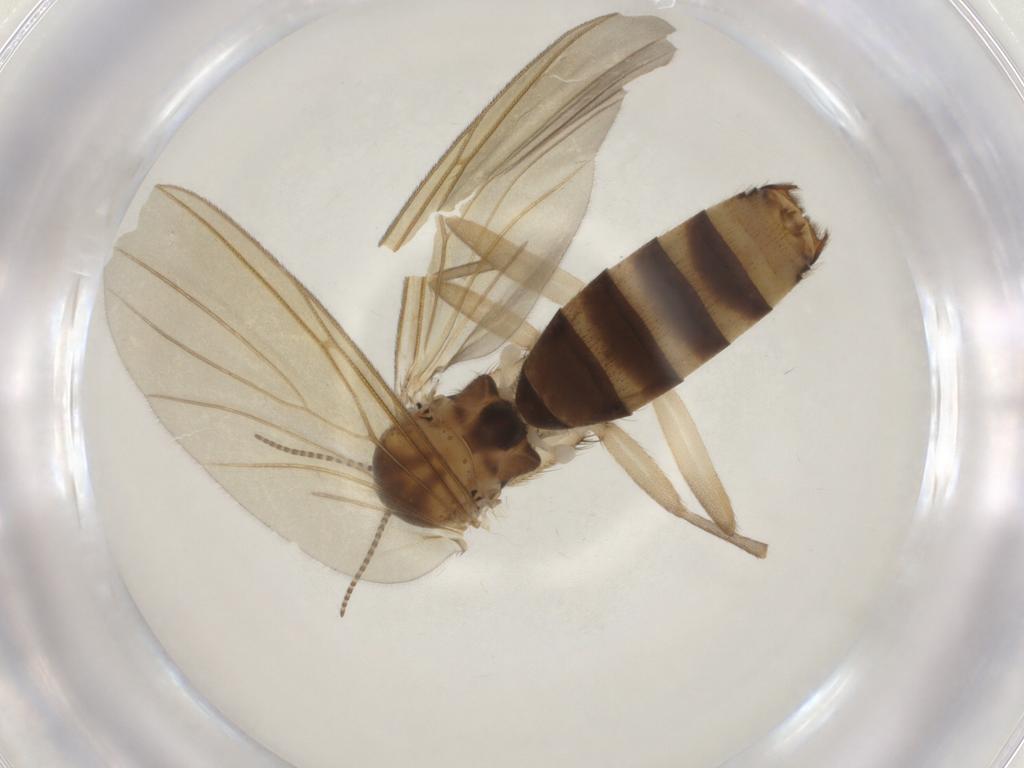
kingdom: Animalia
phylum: Arthropoda
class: Insecta
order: Diptera
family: Mycetophilidae
